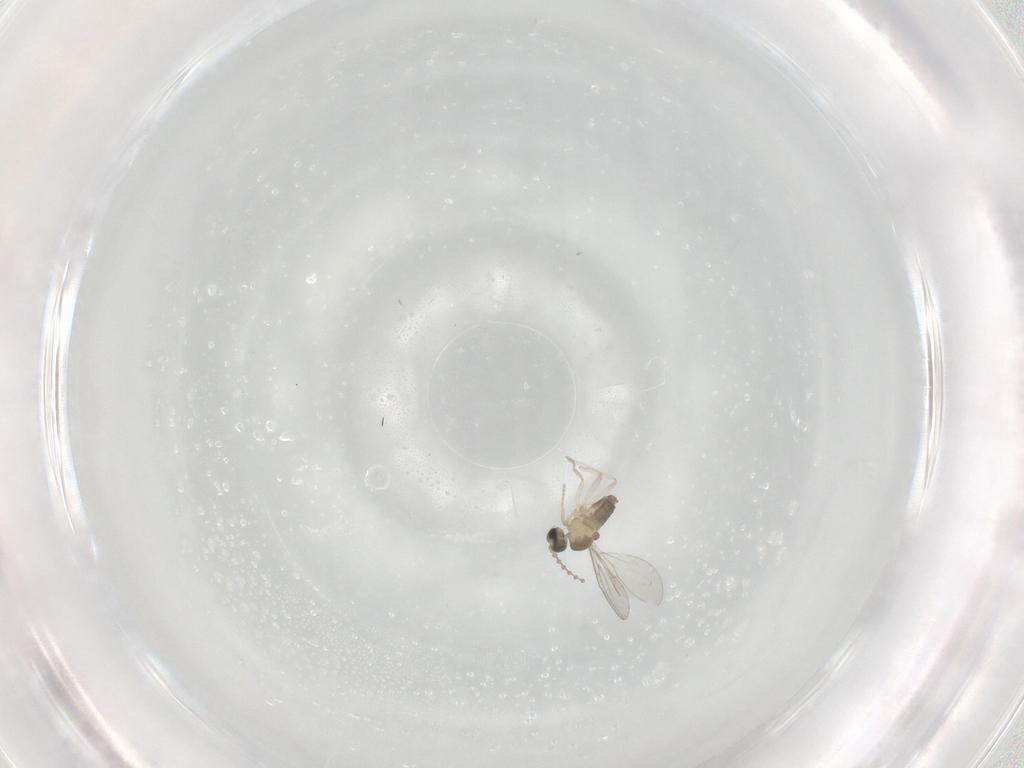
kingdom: Animalia
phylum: Arthropoda
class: Insecta
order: Diptera
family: Cecidomyiidae
